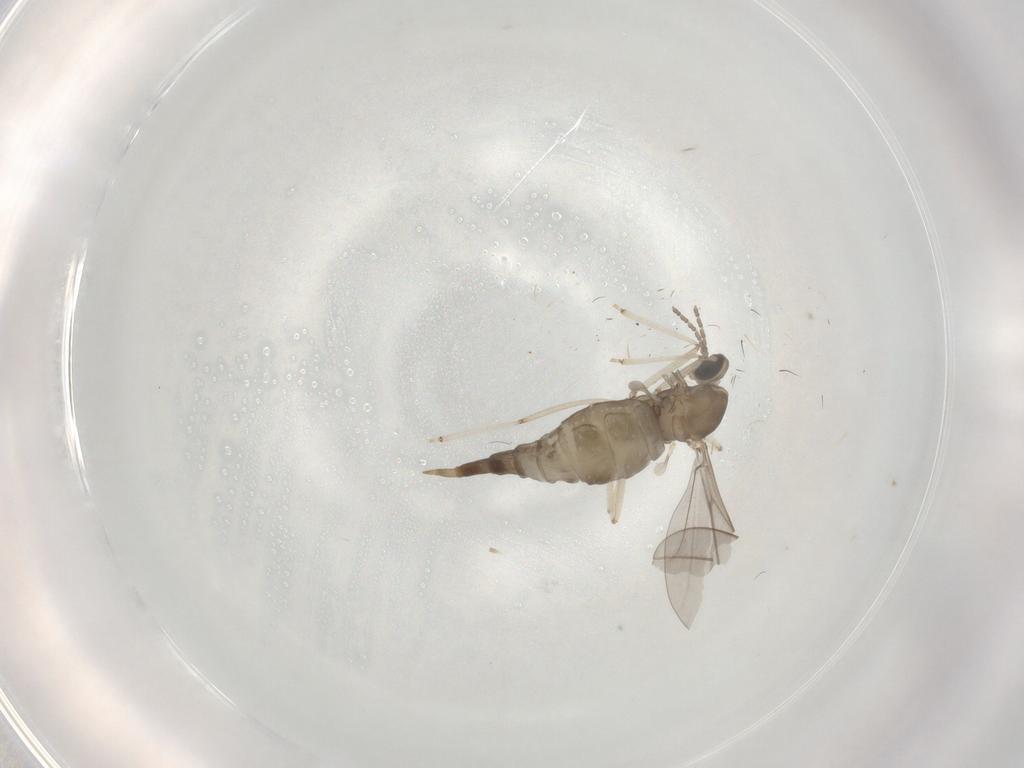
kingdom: Animalia
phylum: Arthropoda
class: Insecta
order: Diptera
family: Cecidomyiidae
